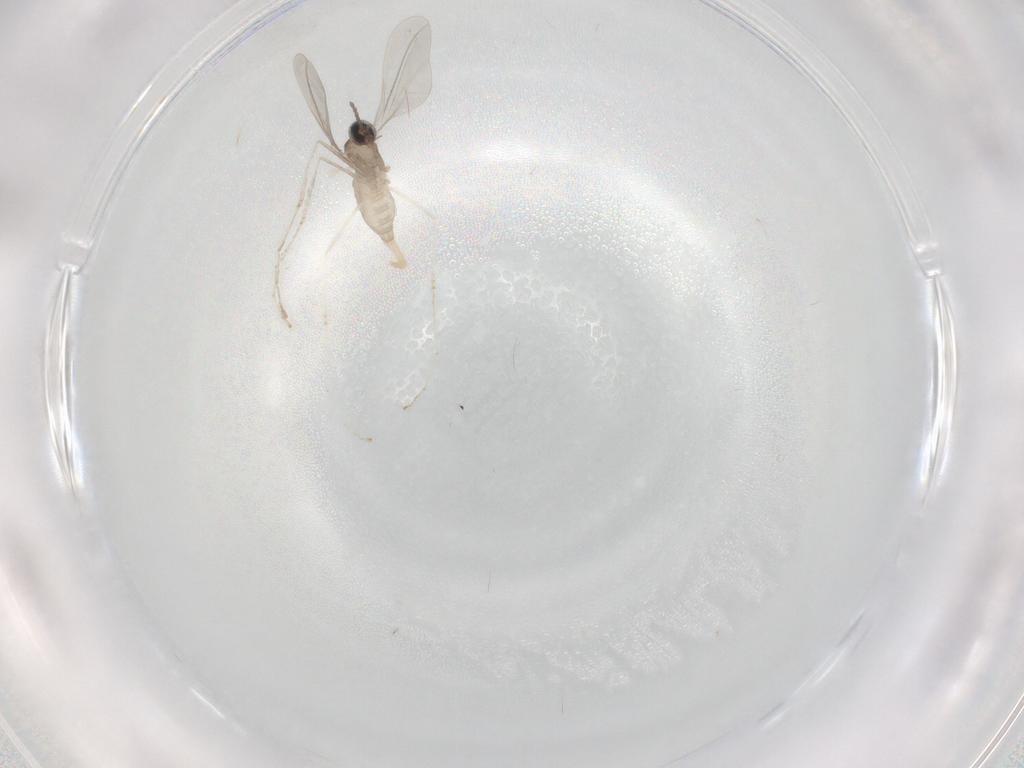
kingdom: Animalia
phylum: Arthropoda
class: Insecta
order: Diptera
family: Cecidomyiidae
